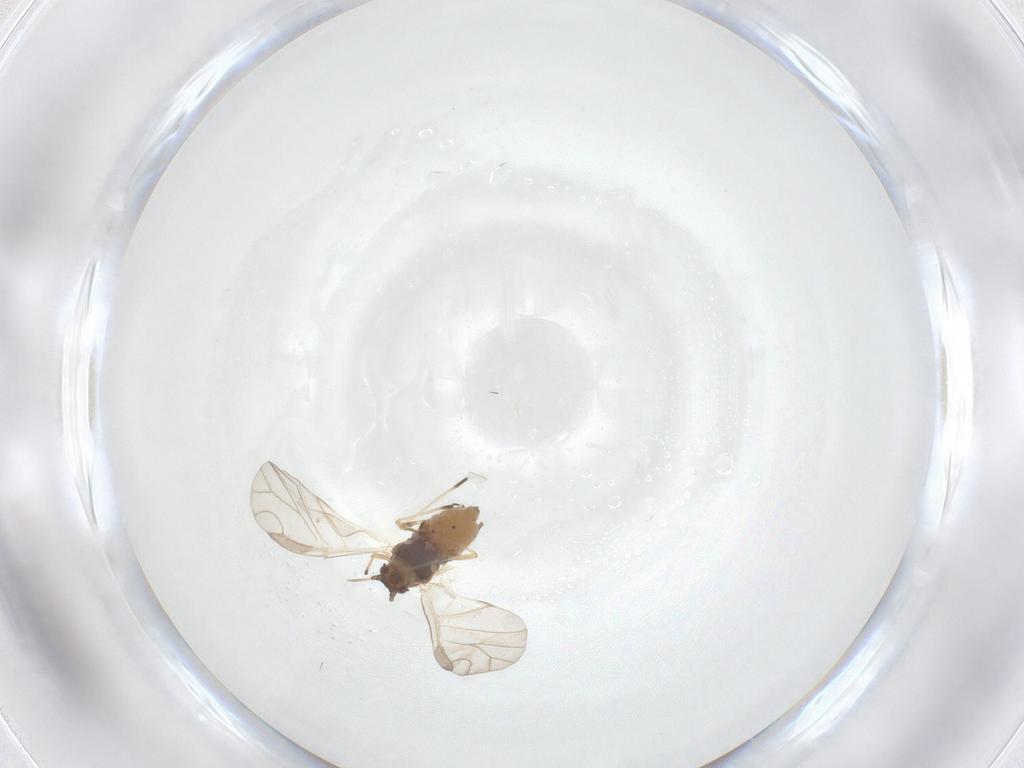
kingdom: Animalia
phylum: Arthropoda
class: Insecta
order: Hemiptera
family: Aphididae
